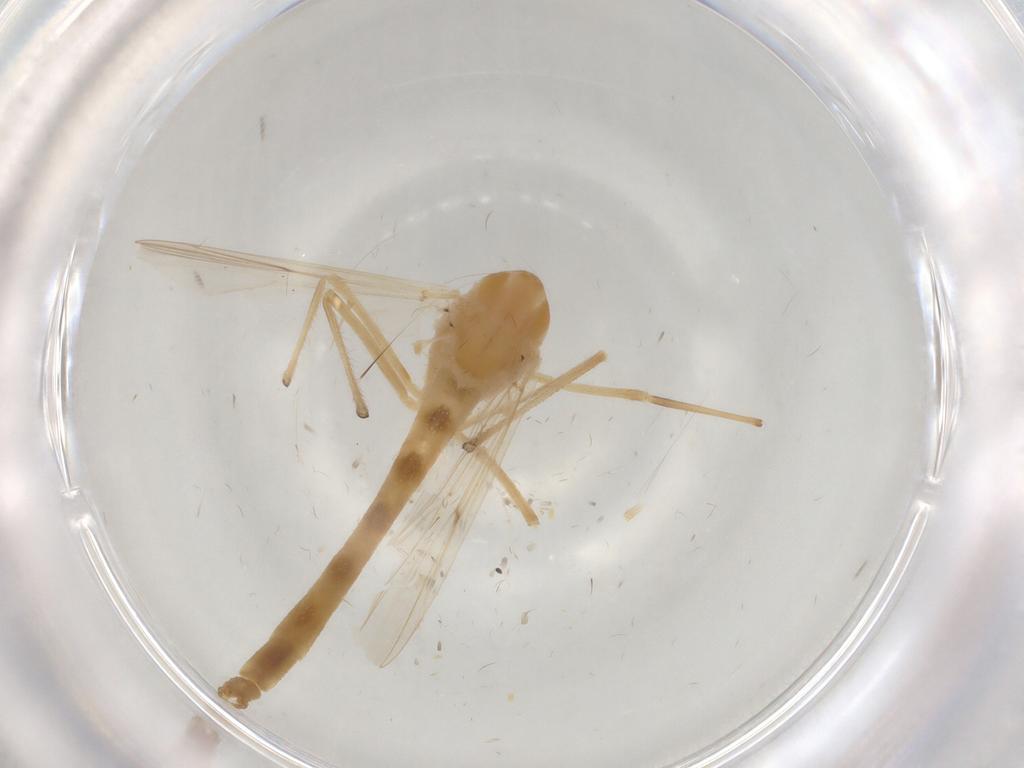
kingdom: Animalia
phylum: Arthropoda
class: Insecta
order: Diptera
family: Chironomidae
